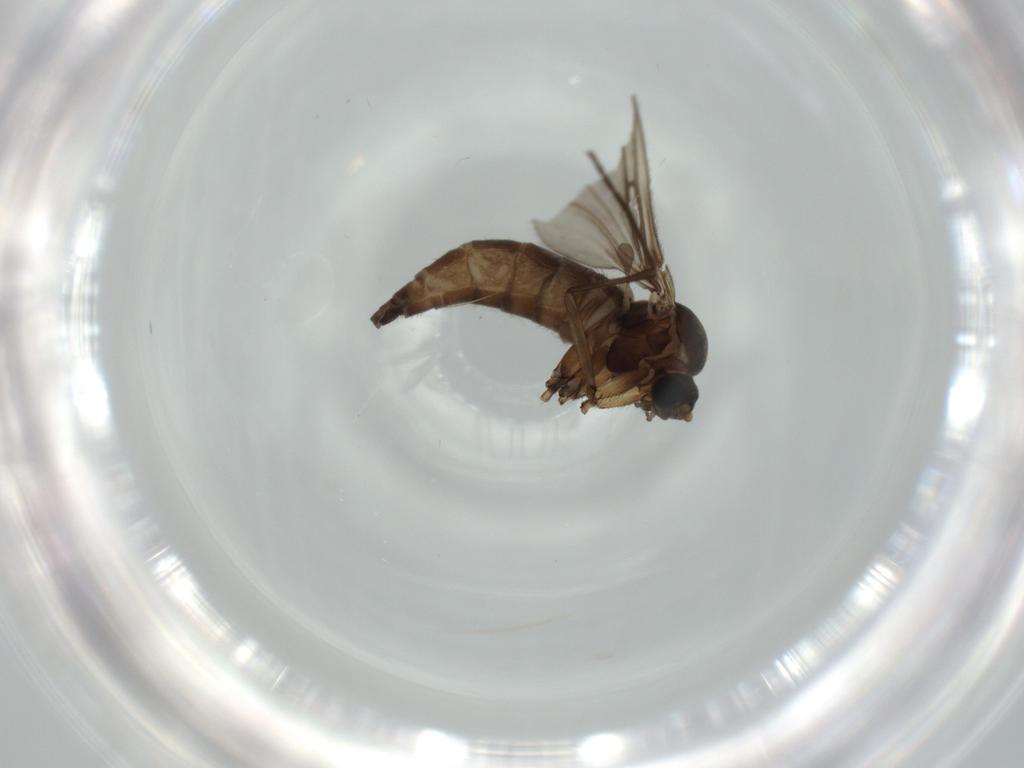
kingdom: Animalia
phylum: Arthropoda
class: Insecta
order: Diptera
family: Sciaridae
